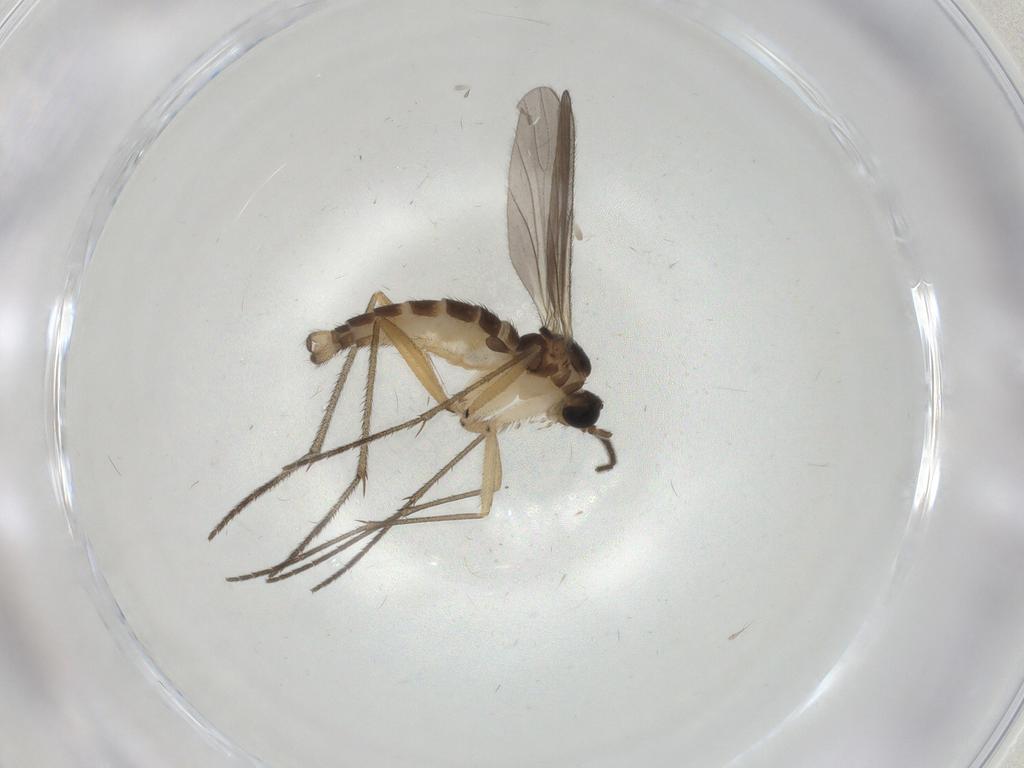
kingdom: Animalia
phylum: Arthropoda
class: Insecta
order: Diptera
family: Sciaridae
